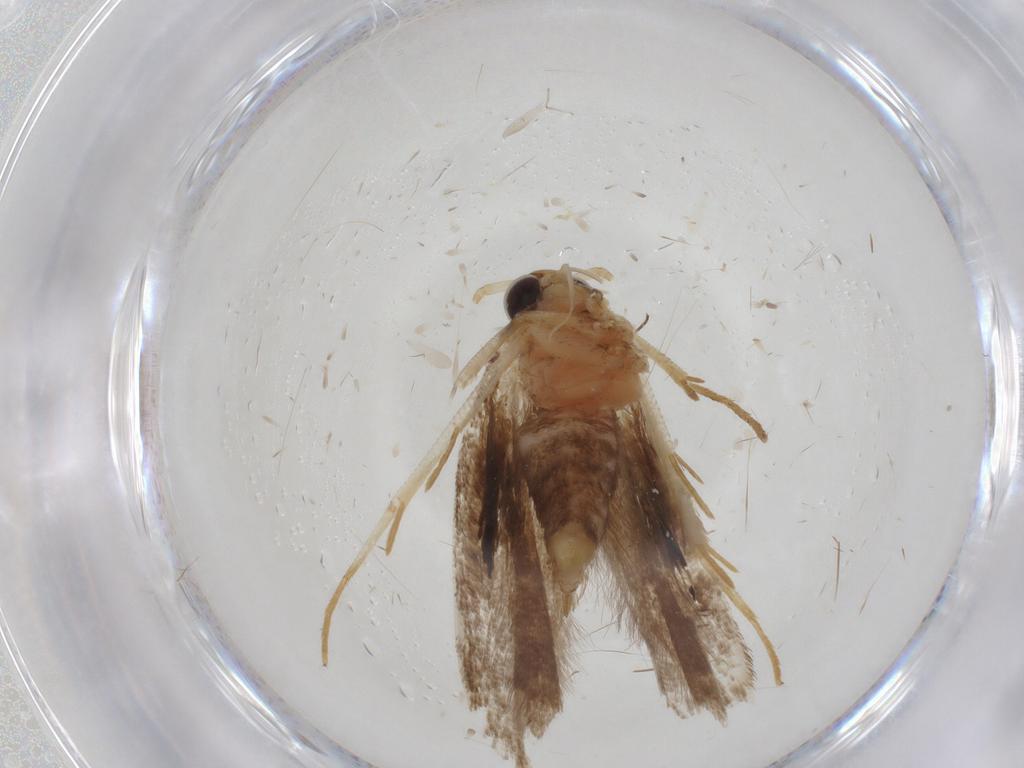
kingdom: Animalia
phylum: Arthropoda
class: Insecta
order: Lepidoptera
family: Gelechiidae
